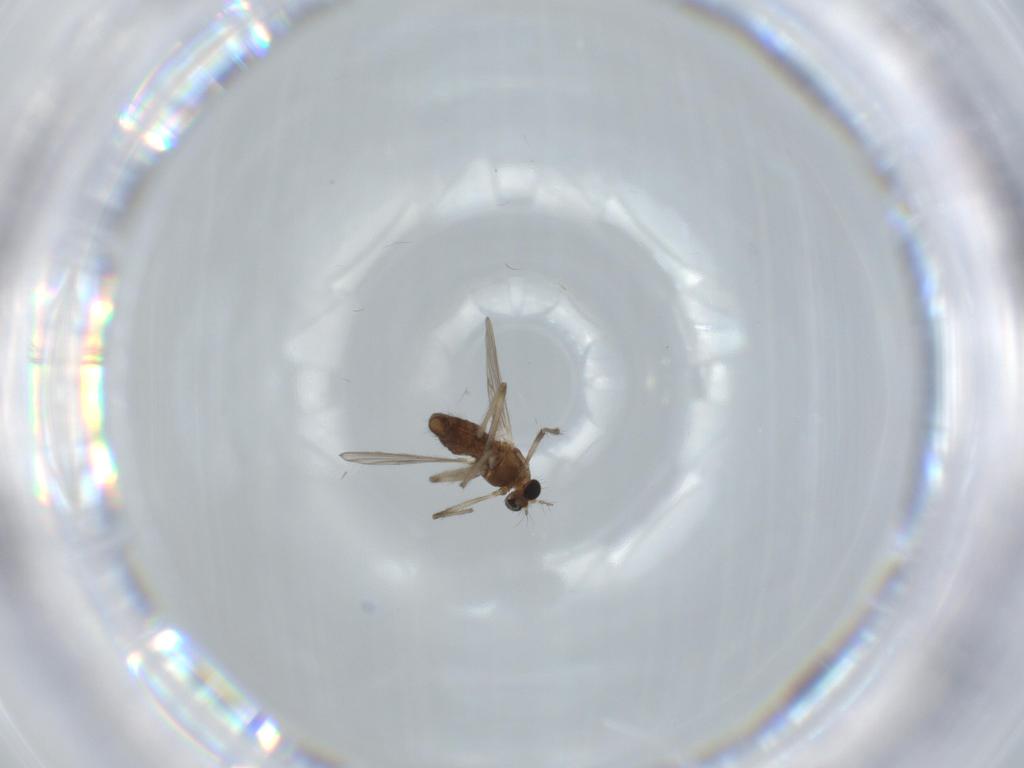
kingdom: Animalia
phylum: Arthropoda
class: Insecta
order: Diptera
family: Chironomidae
